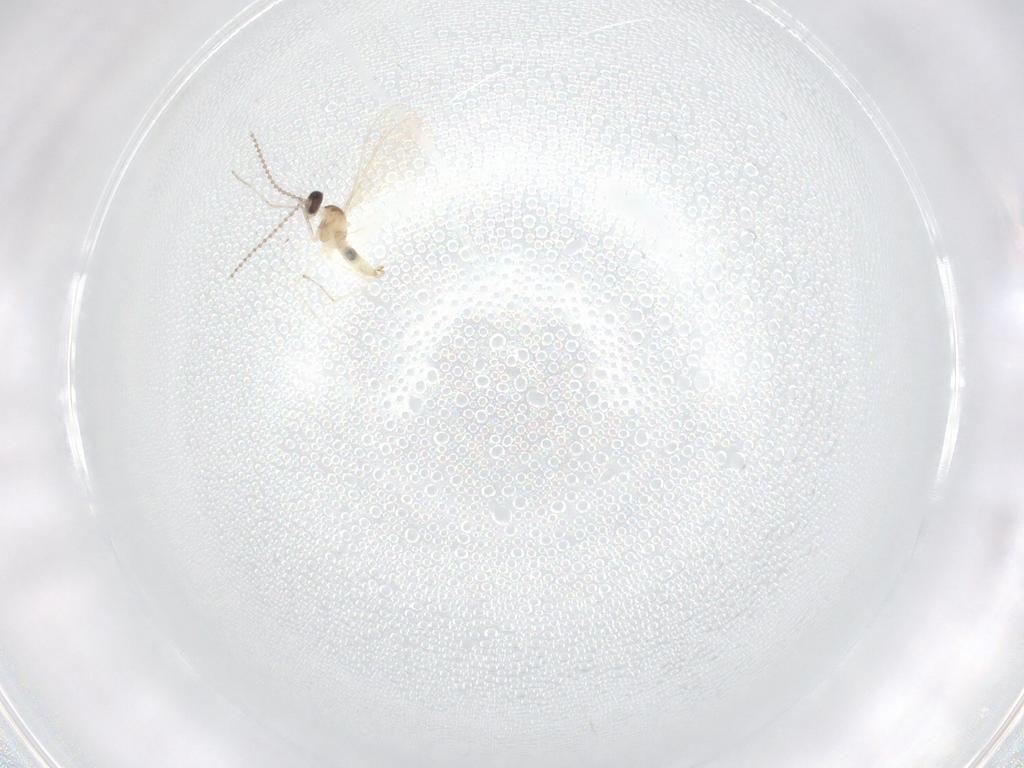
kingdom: Animalia
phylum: Arthropoda
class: Insecta
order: Diptera
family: Cecidomyiidae
